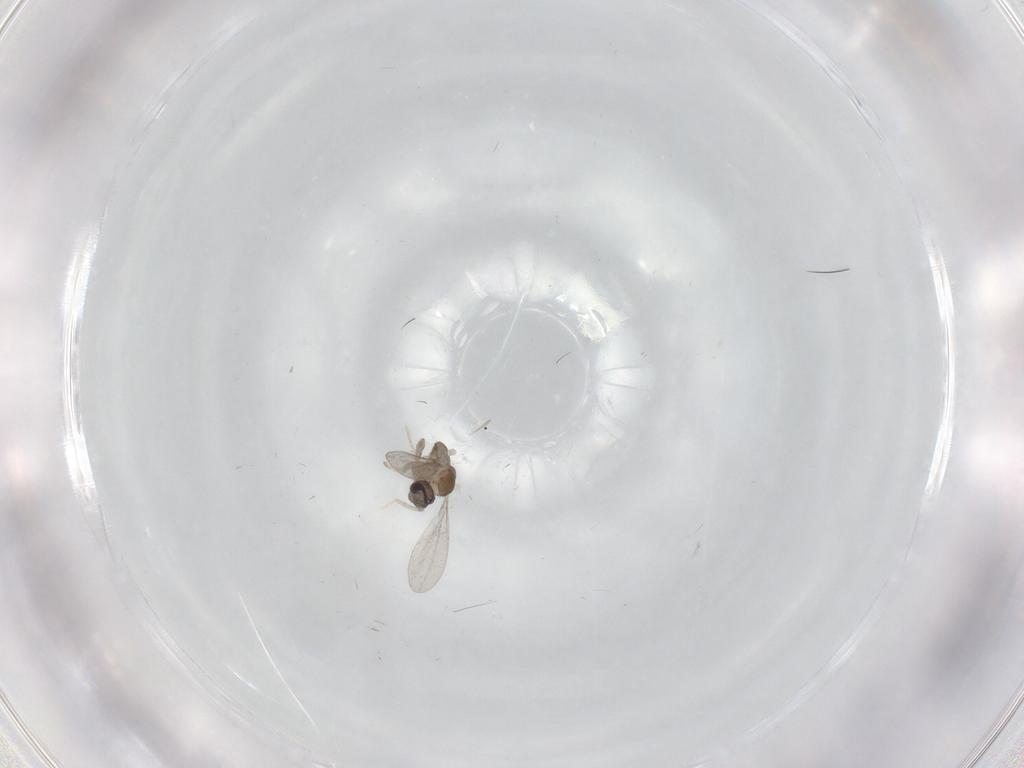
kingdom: Animalia
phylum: Arthropoda
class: Insecta
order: Diptera
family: Cecidomyiidae
